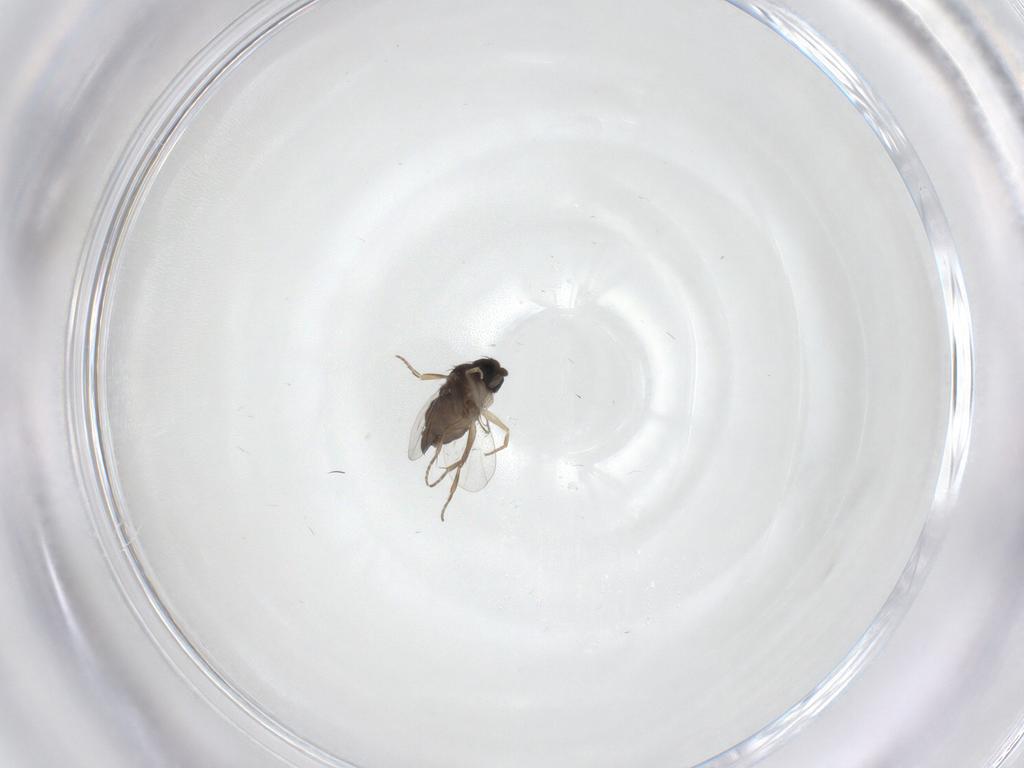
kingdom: Animalia
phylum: Arthropoda
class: Insecta
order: Diptera
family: Phoridae
